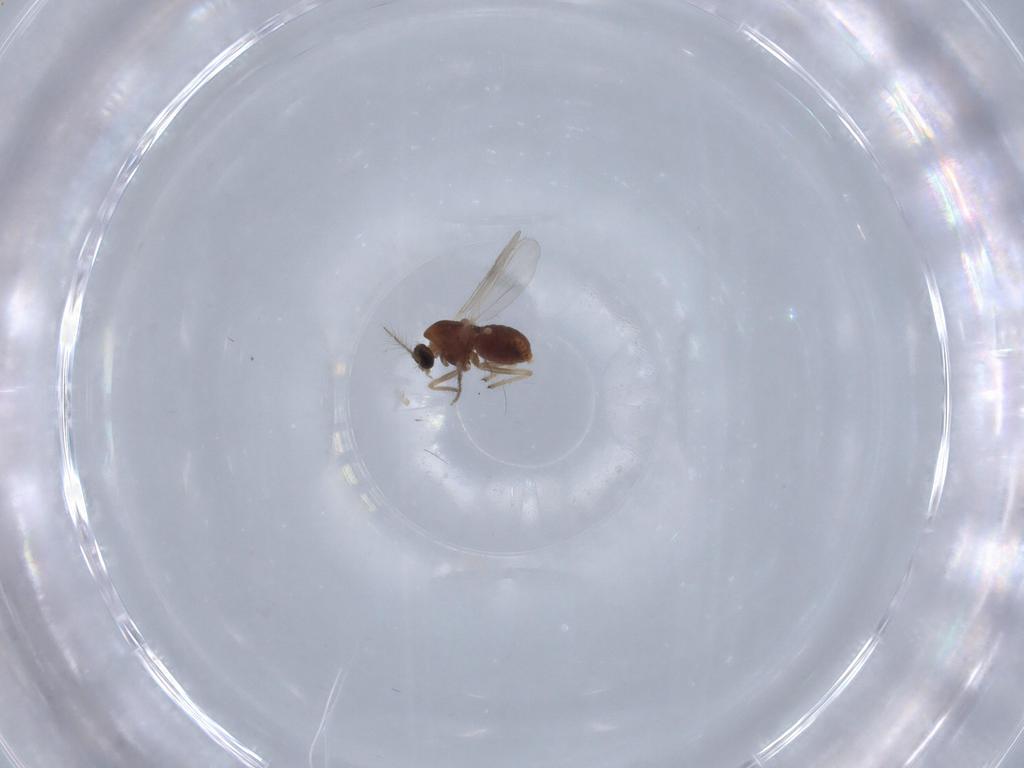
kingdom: Animalia
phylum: Arthropoda
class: Insecta
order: Diptera
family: Chironomidae
